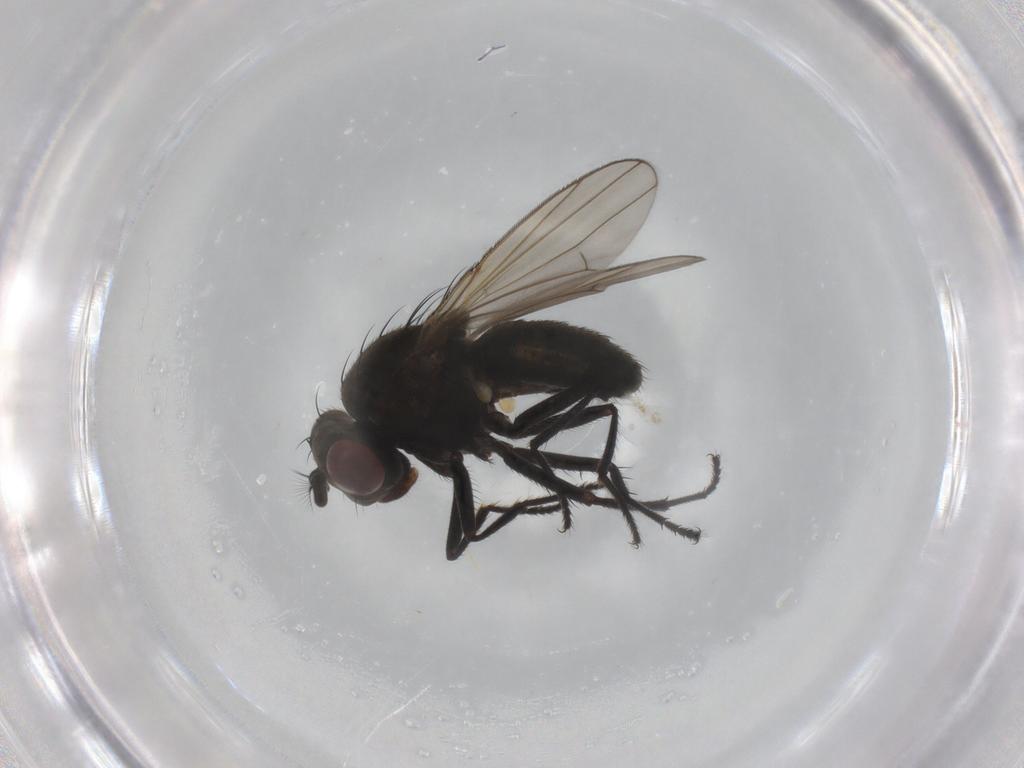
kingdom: Animalia
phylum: Arthropoda
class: Insecta
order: Diptera
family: Ephydridae
